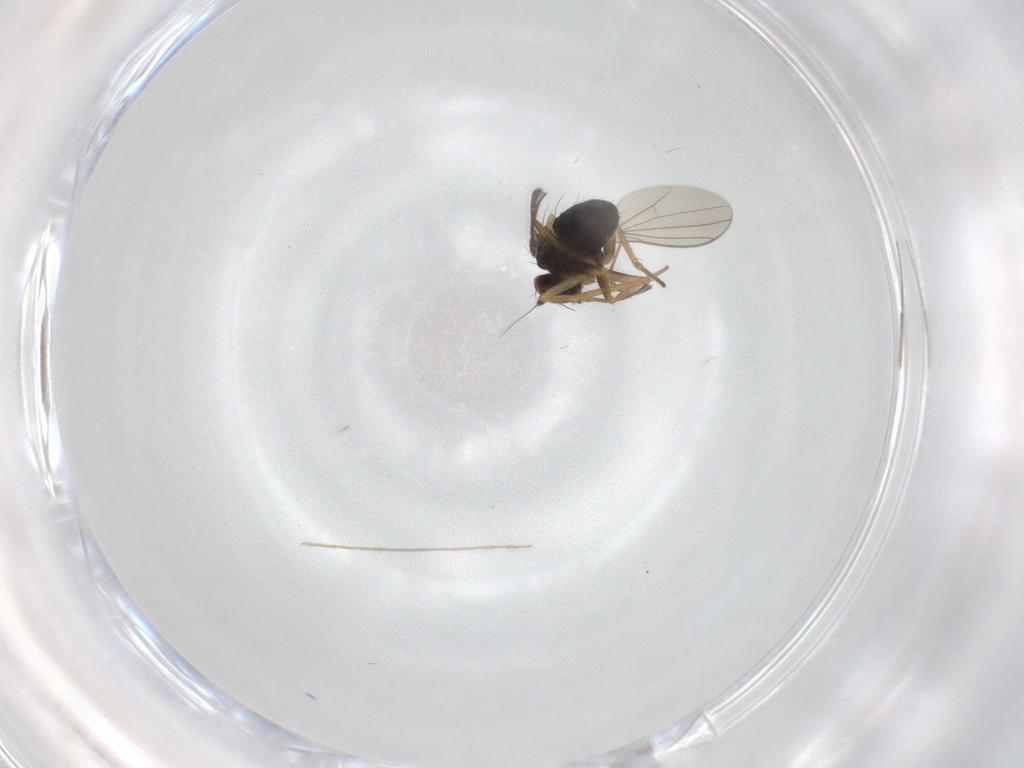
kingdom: Animalia
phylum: Arthropoda
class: Insecta
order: Diptera
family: Dolichopodidae
